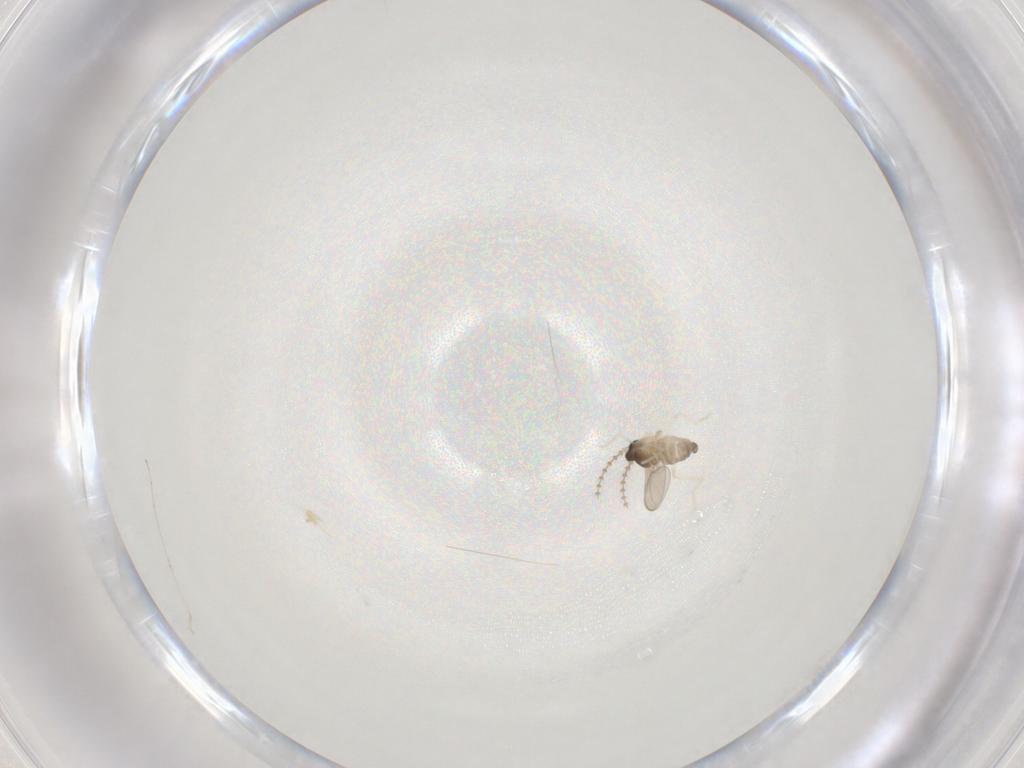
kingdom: Animalia
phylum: Arthropoda
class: Insecta
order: Diptera
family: Cecidomyiidae
